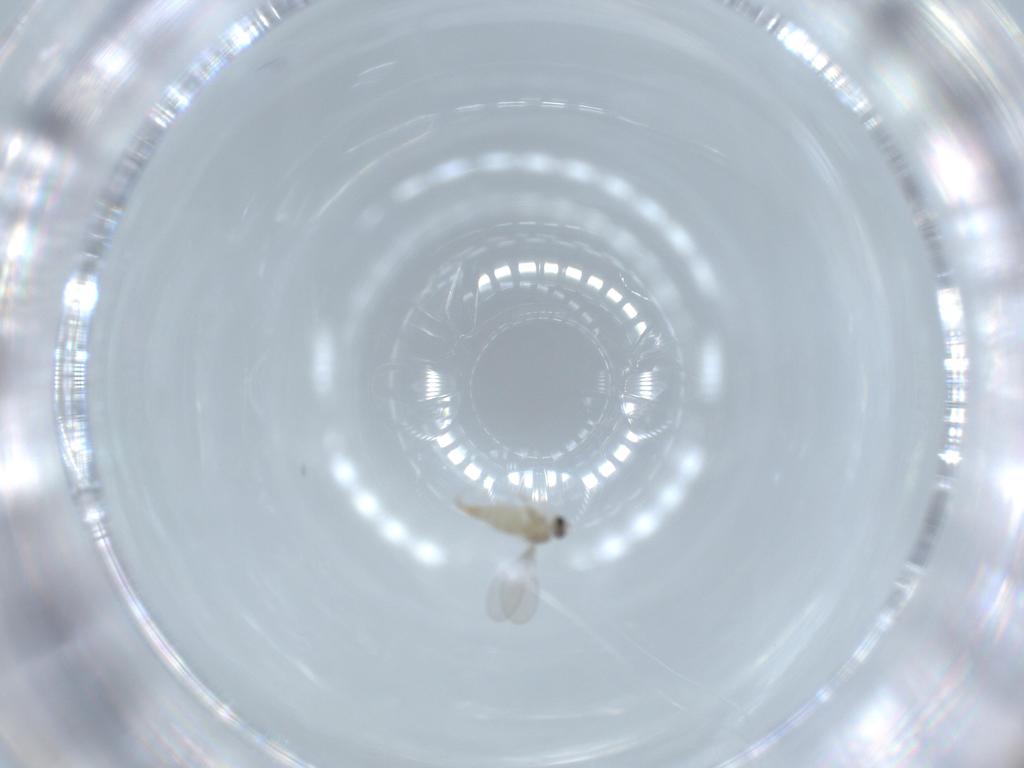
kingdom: Animalia
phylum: Arthropoda
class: Insecta
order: Diptera
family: Cecidomyiidae
